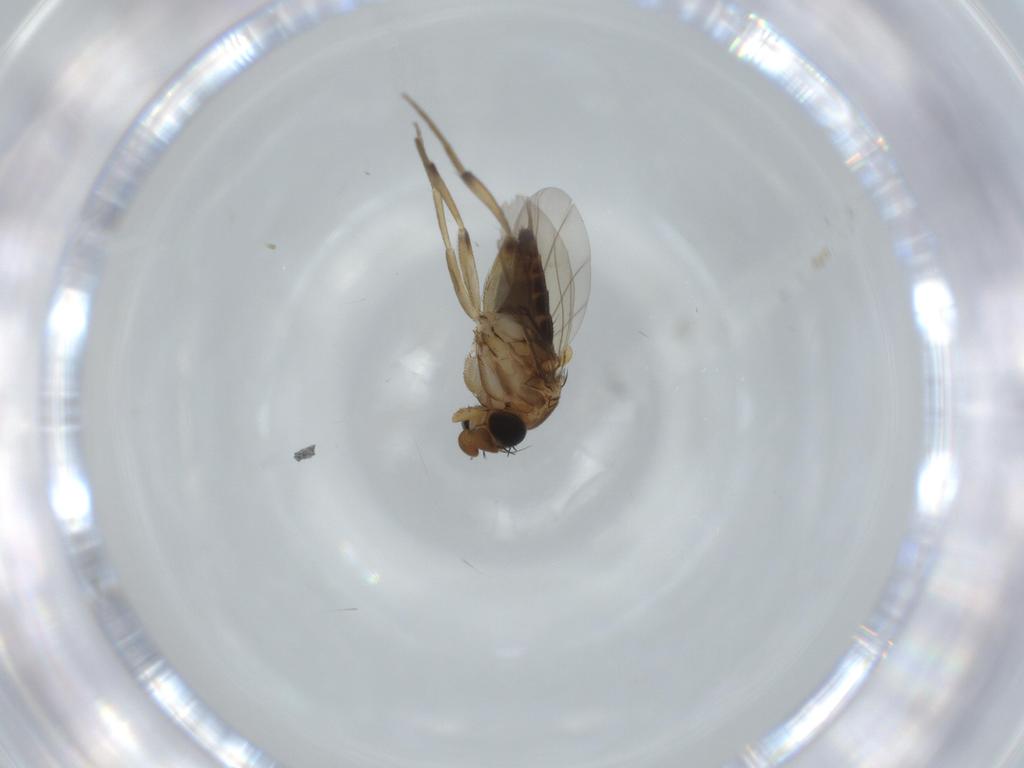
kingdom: Animalia
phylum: Arthropoda
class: Insecta
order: Diptera
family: Phoridae
